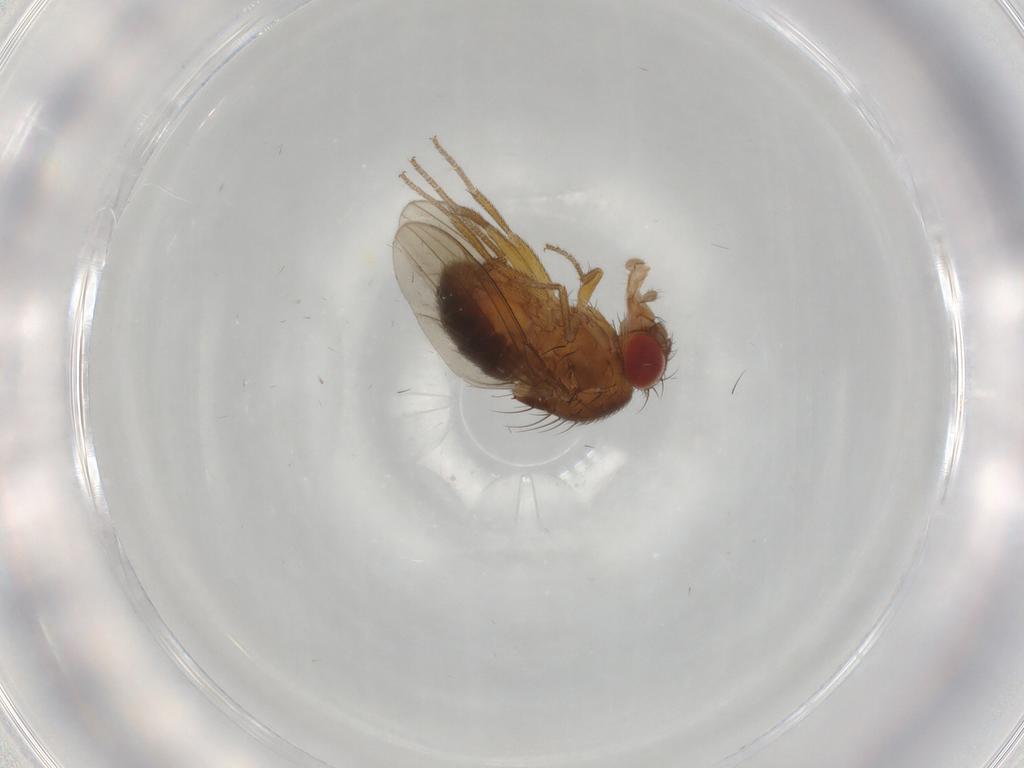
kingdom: Animalia
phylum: Arthropoda
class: Insecta
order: Diptera
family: Drosophilidae
